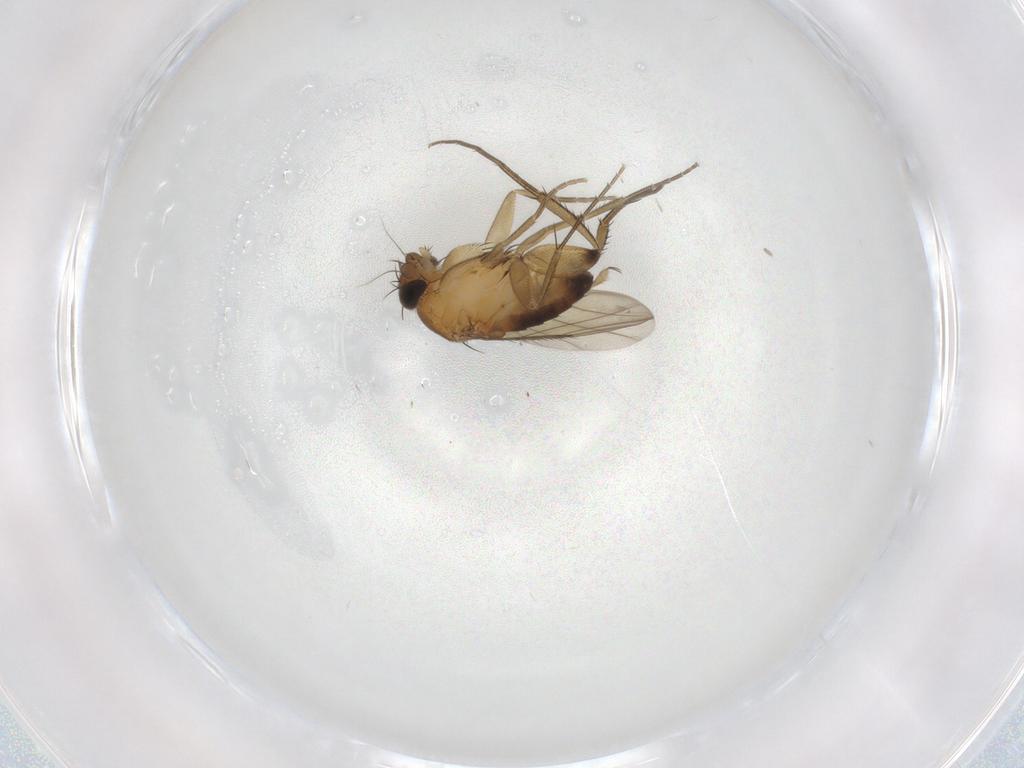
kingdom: Animalia
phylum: Arthropoda
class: Insecta
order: Diptera
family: Phoridae
